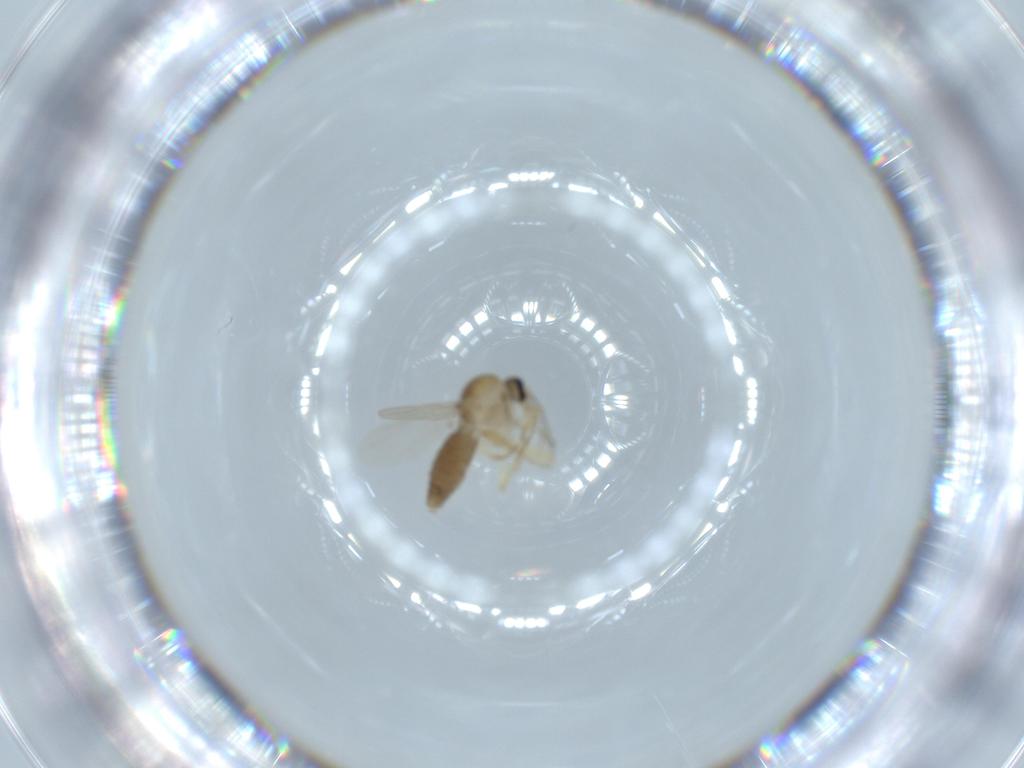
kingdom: Animalia
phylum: Arthropoda
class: Insecta
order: Diptera
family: Ceratopogonidae
